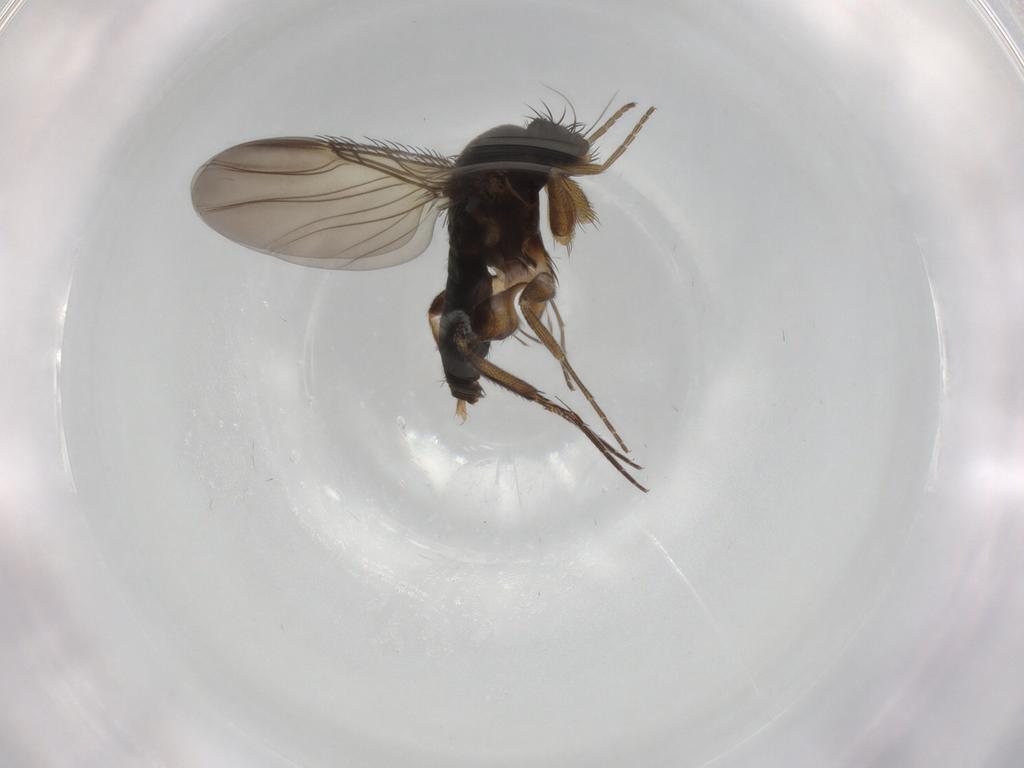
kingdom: Animalia
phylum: Arthropoda
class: Insecta
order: Diptera
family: Phoridae
